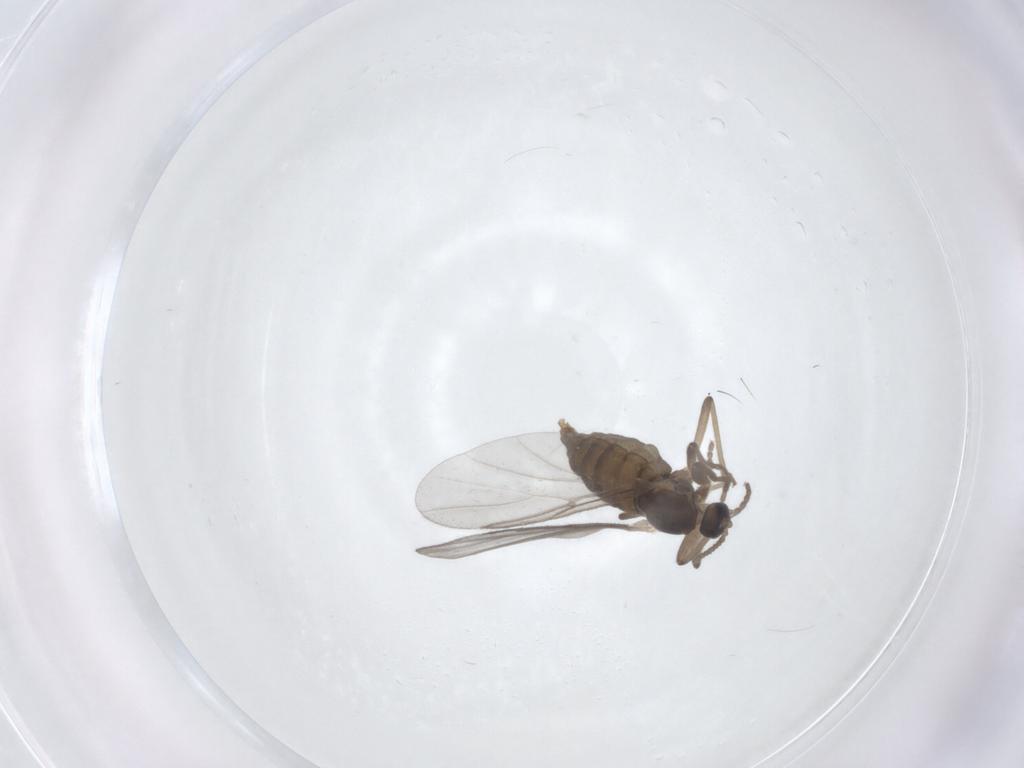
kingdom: Animalia
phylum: Arthropoda
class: Insecta
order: Diptera
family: Cecidomyiidae
